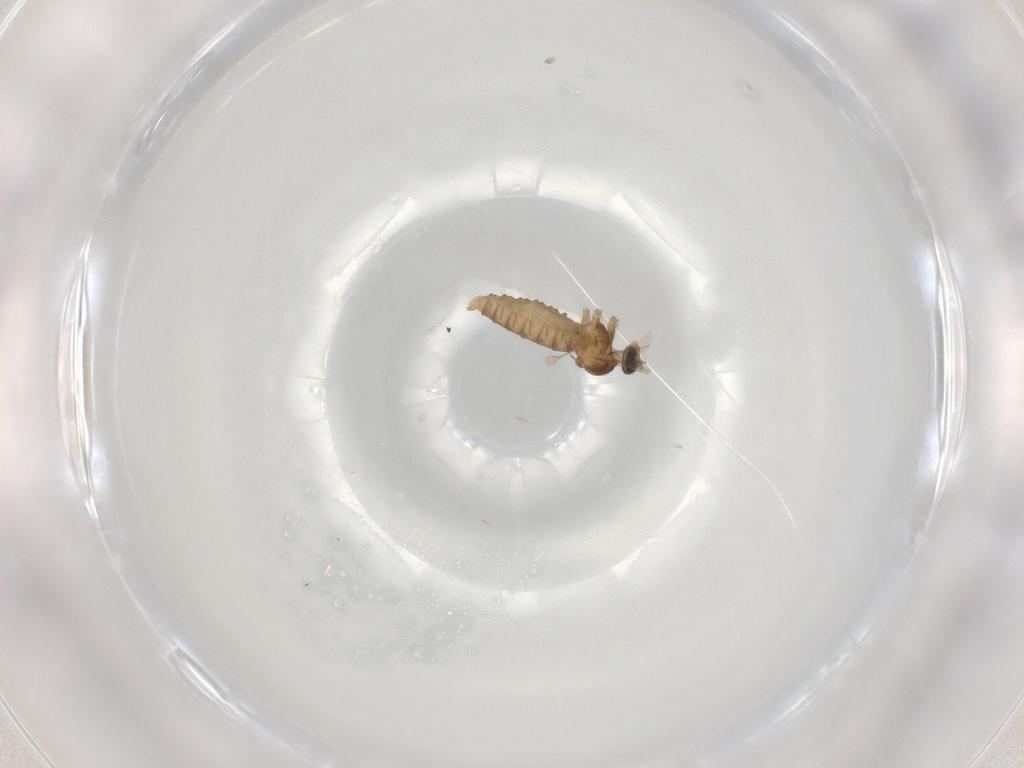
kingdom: Animalia
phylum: Arthropoda
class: Insecta
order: Diptera
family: Cecidomyiidae
